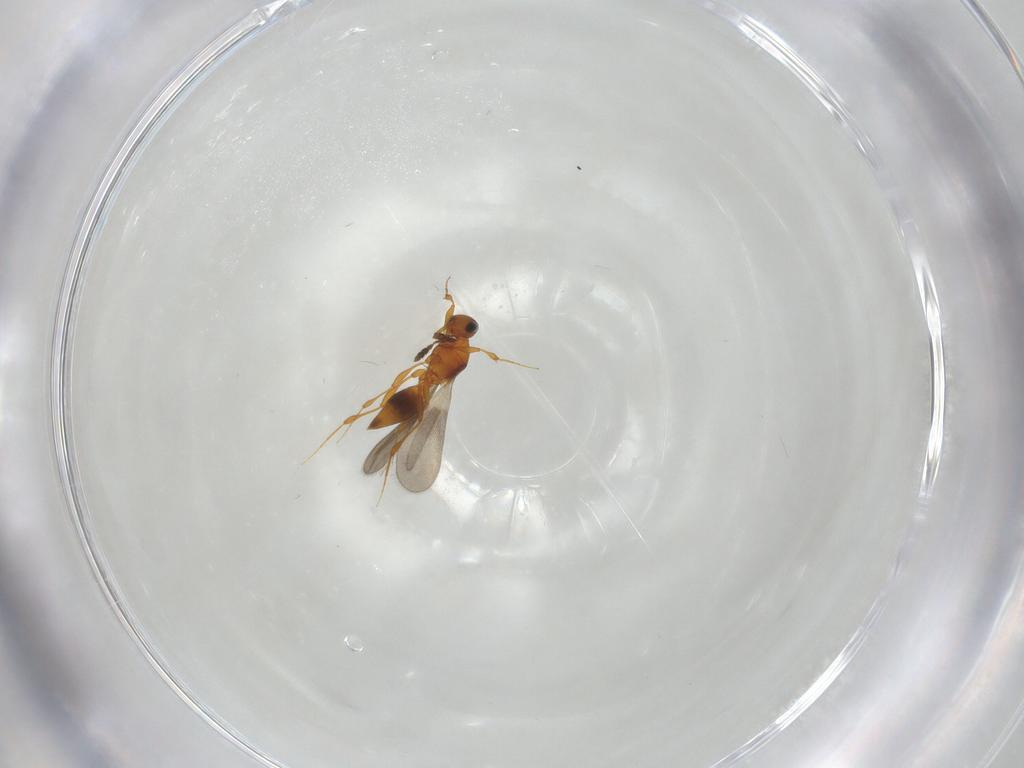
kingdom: Animalia
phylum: Arthropoda
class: Insecta
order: Hymenoptera
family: Platygastridae
